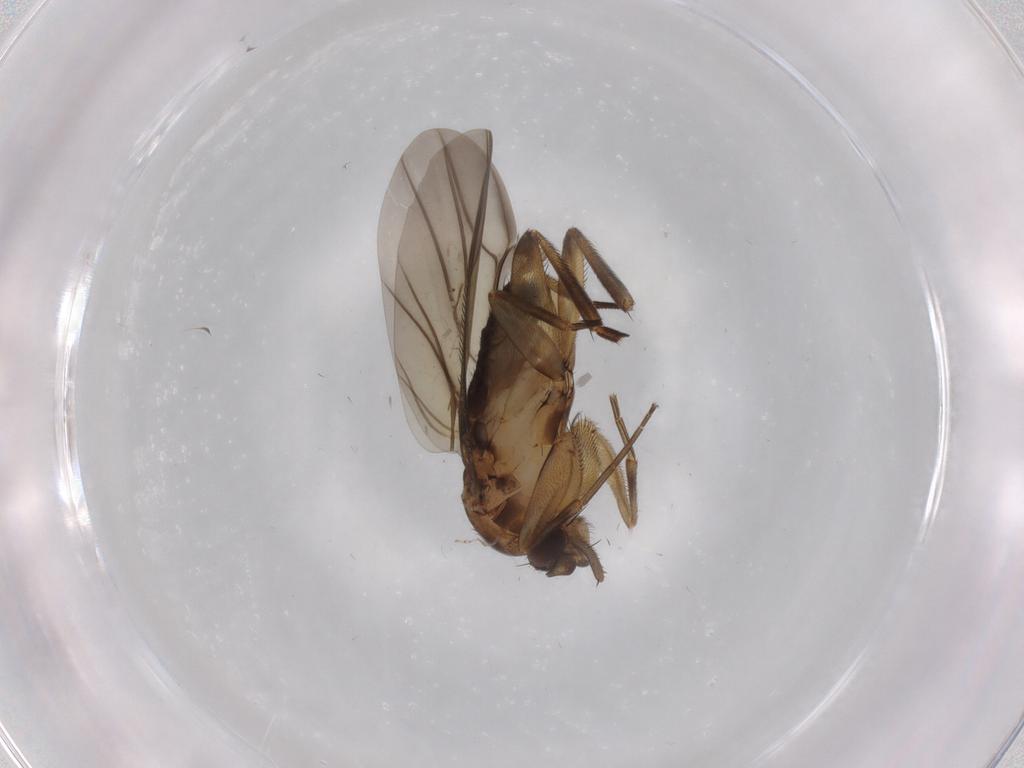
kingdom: Animalia
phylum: Arthropoda
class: Insecta
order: Diptera
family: Phoridae
